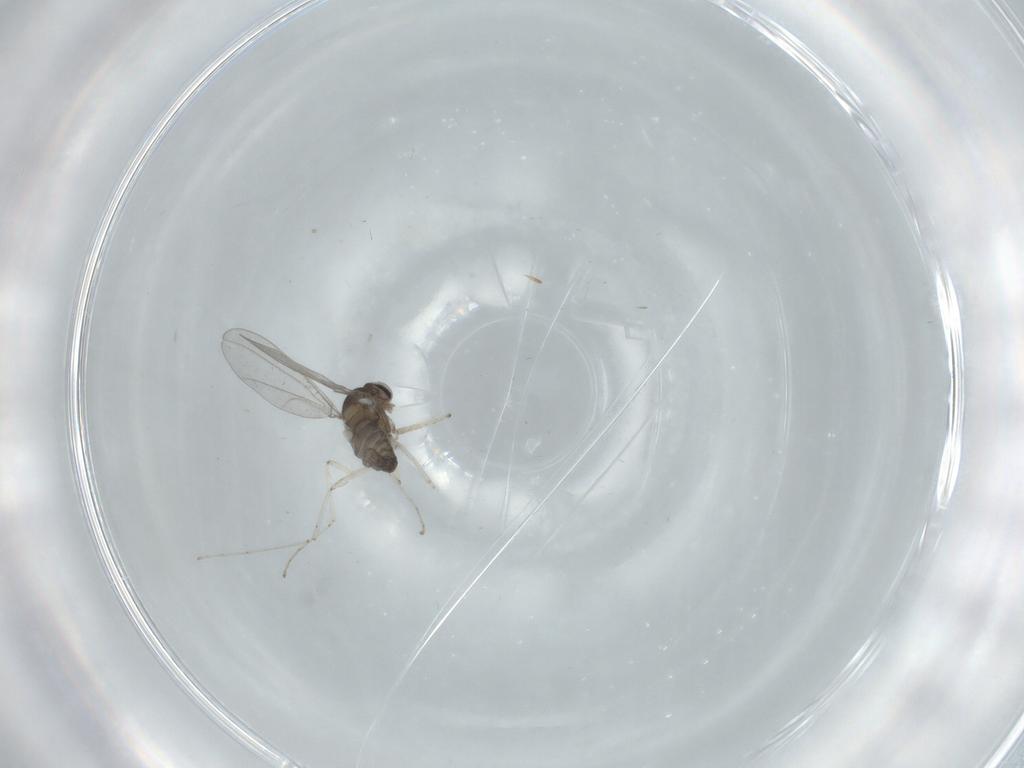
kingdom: Animalia
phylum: Arthropoda
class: Insecta
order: Diptera
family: Cecidomyiidae
